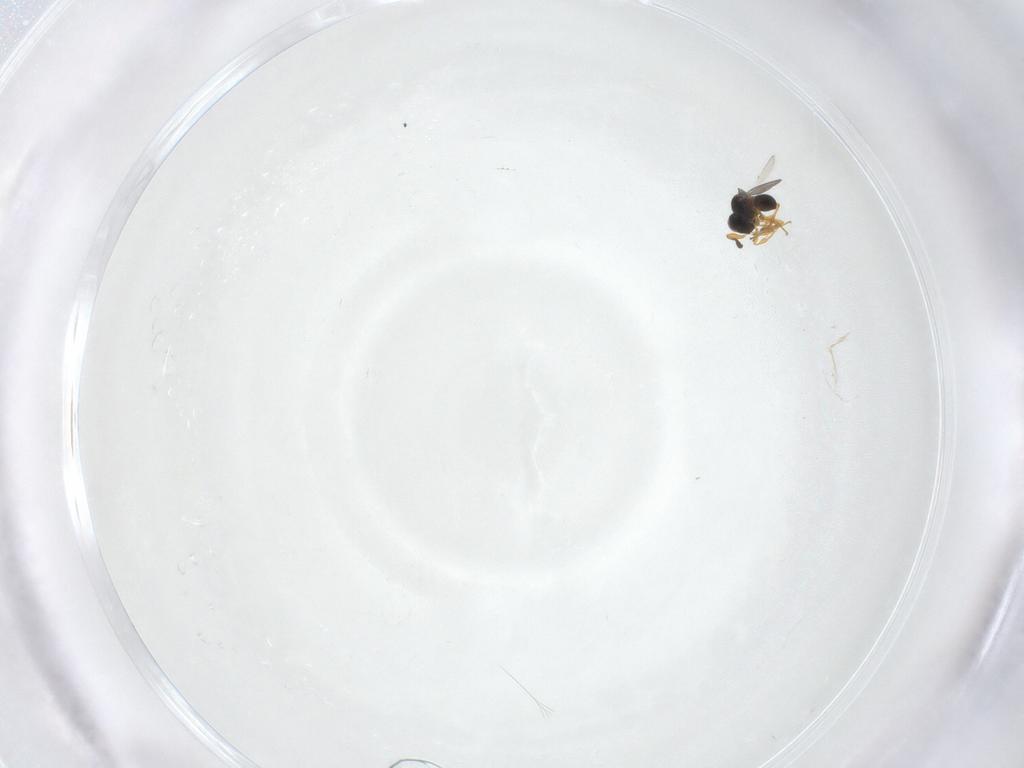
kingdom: Animalia
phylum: Arthropoda
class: Insecta
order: Hymenoptera
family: Platygastridae
